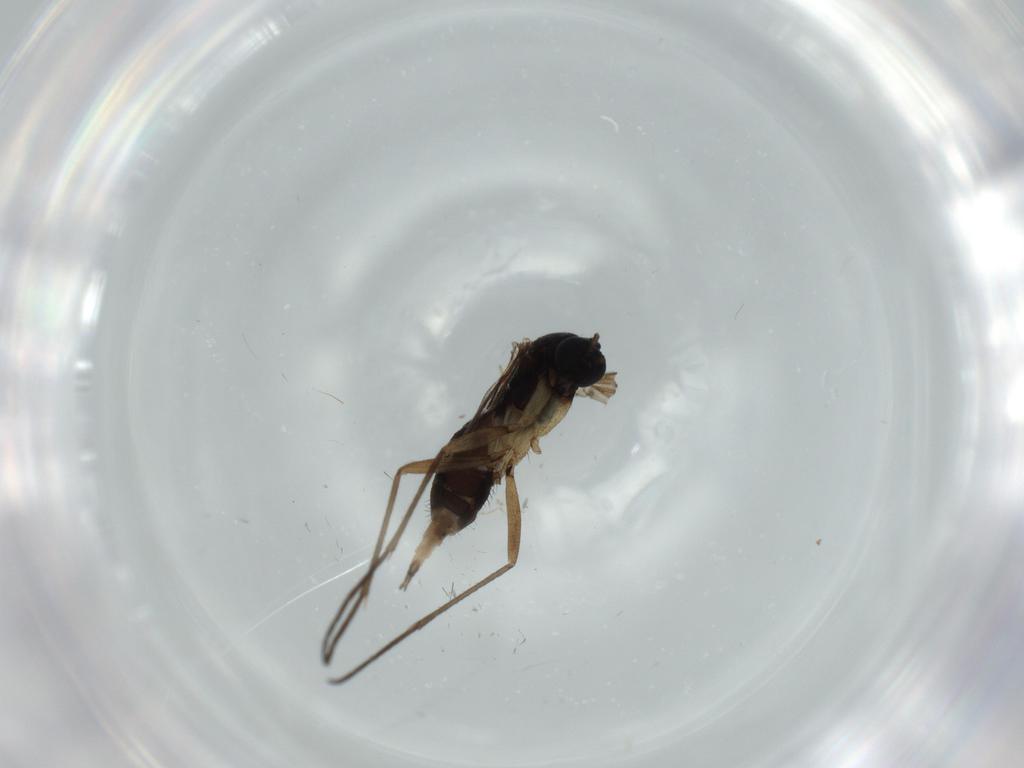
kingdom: Animalia
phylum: Arthropoda
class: Insecta
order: Diptera
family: Sciaridae
